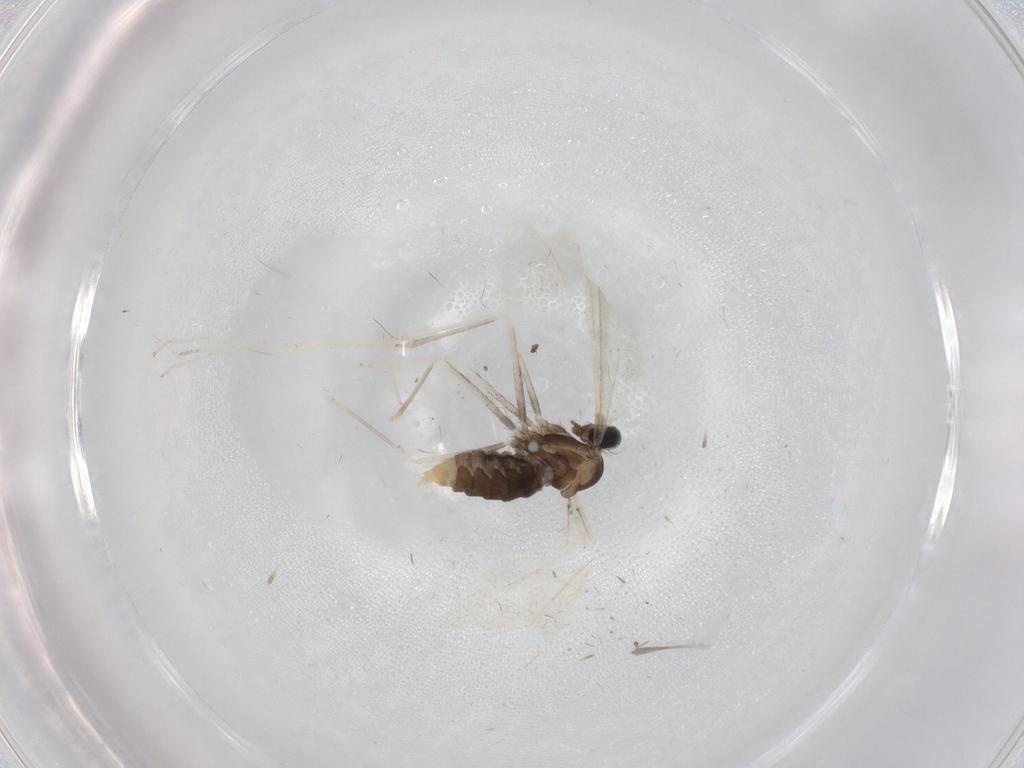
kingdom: Animalia
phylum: Arthropoda
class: Insecta
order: Diptera
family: Cecidomyiidae
